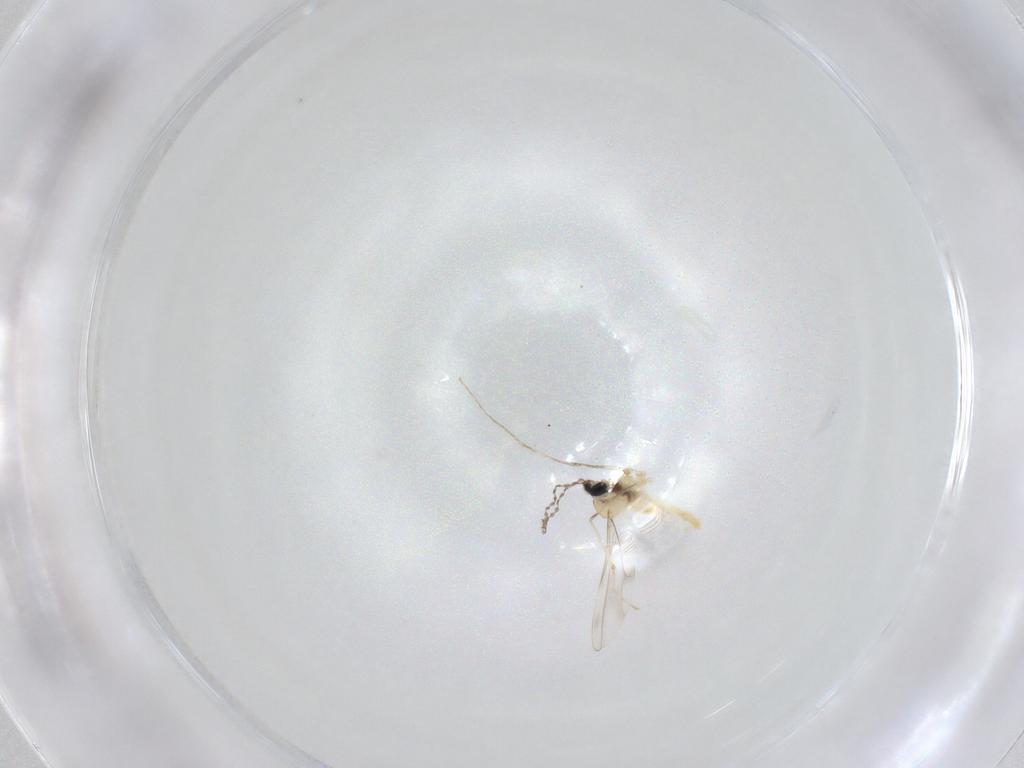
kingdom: Animalia
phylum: Arthropoda
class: Insecta
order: Diptera
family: Cecidomyiidae
